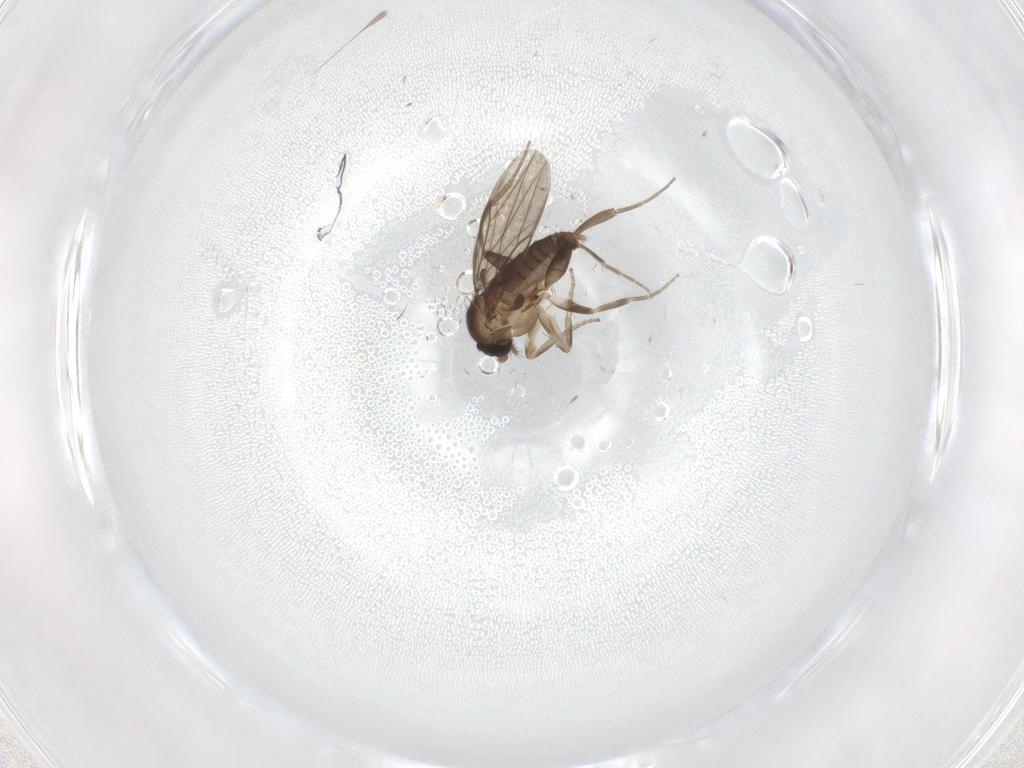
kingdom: Animalia
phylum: Arthropoda
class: Insecta
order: Diptera
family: Phoridae
